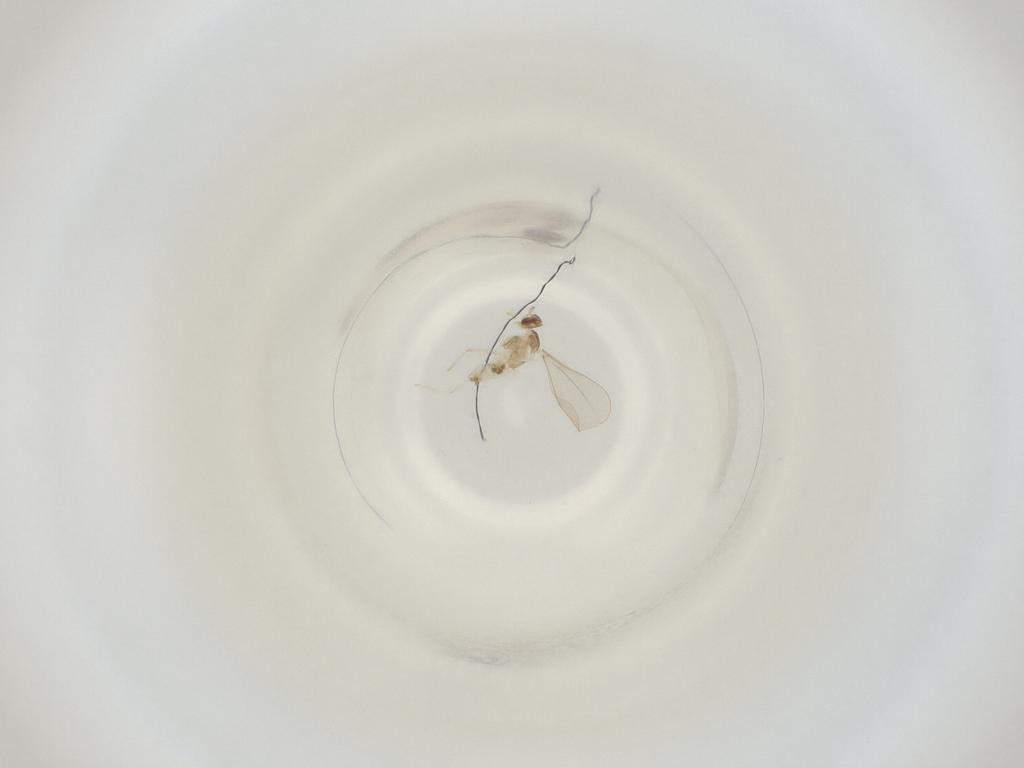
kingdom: Animalia
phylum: Arthropoda
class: Insecta
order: Diptera
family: Cecidomyiidae
